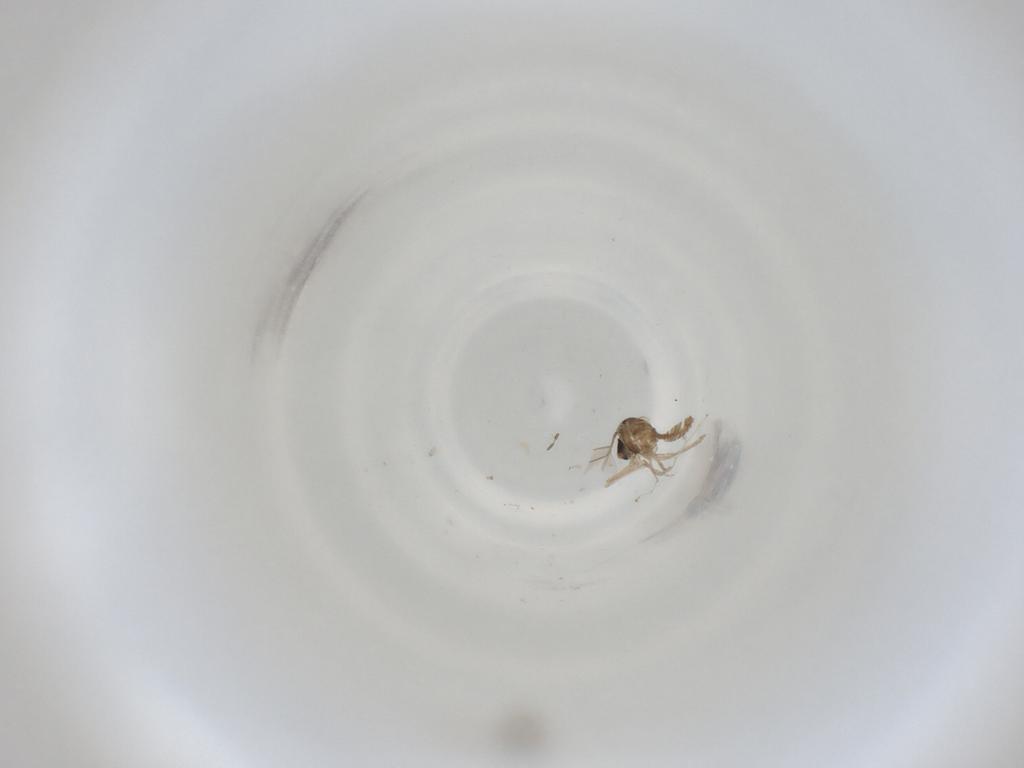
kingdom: Animalia
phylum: Arthropoda
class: Insecta
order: Diptera
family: Cecidomyiidae
